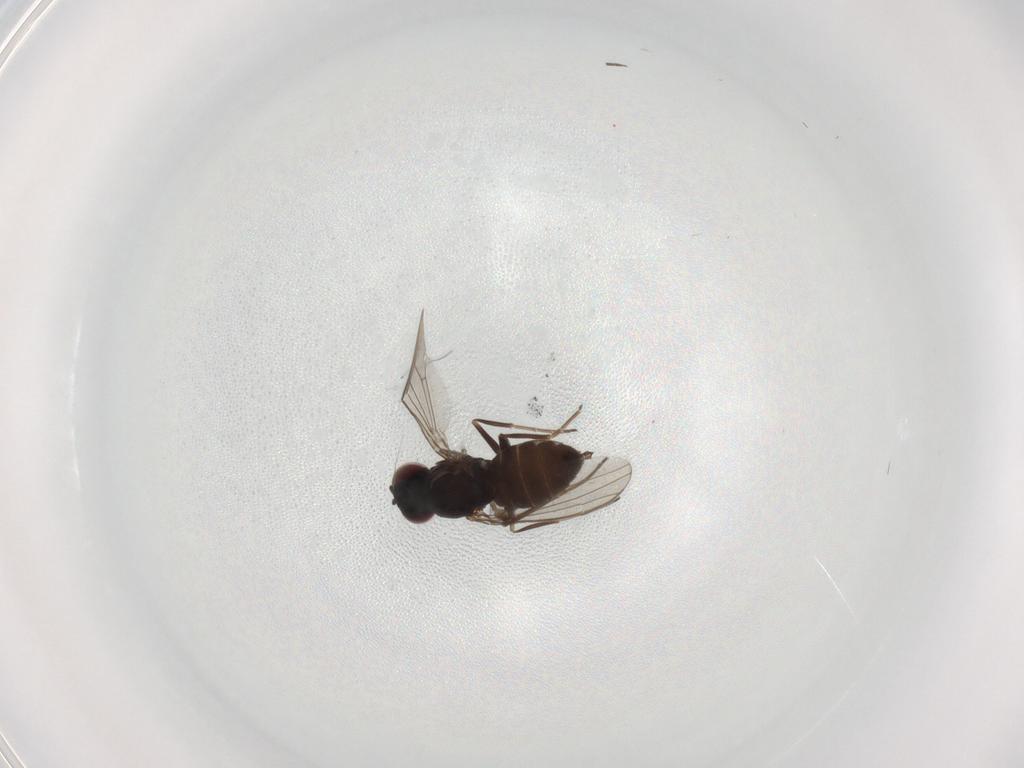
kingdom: Animalia
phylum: Arthropoda
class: Insecta
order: Diptera
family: Dolichopodidae
